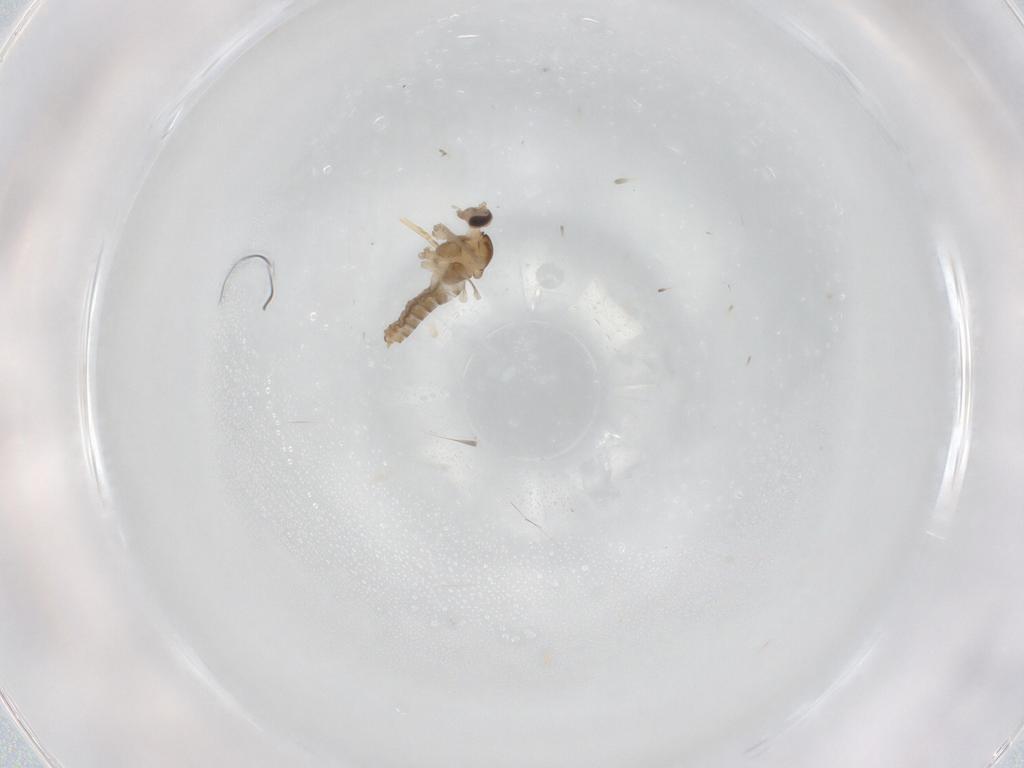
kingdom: Animalia
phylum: Arthropoda
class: Insecta
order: Diptera
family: Cecidomyiidae
